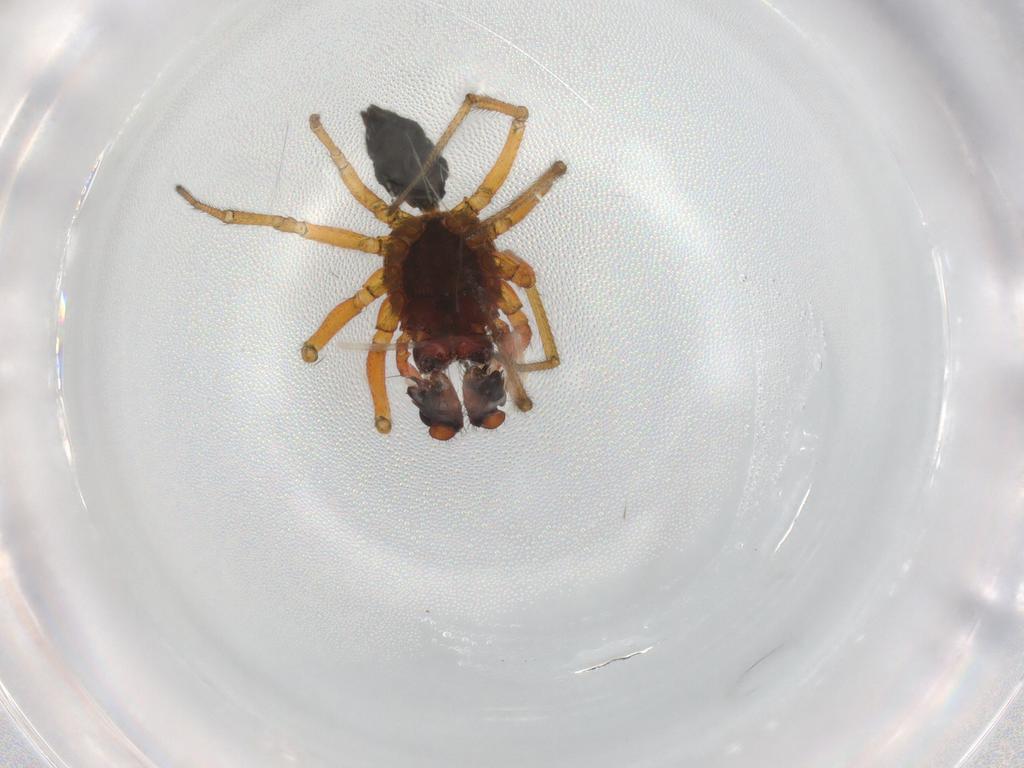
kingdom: Animalia
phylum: Arthropoda
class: Arachnida
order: Araneae
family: Linyphiidae
